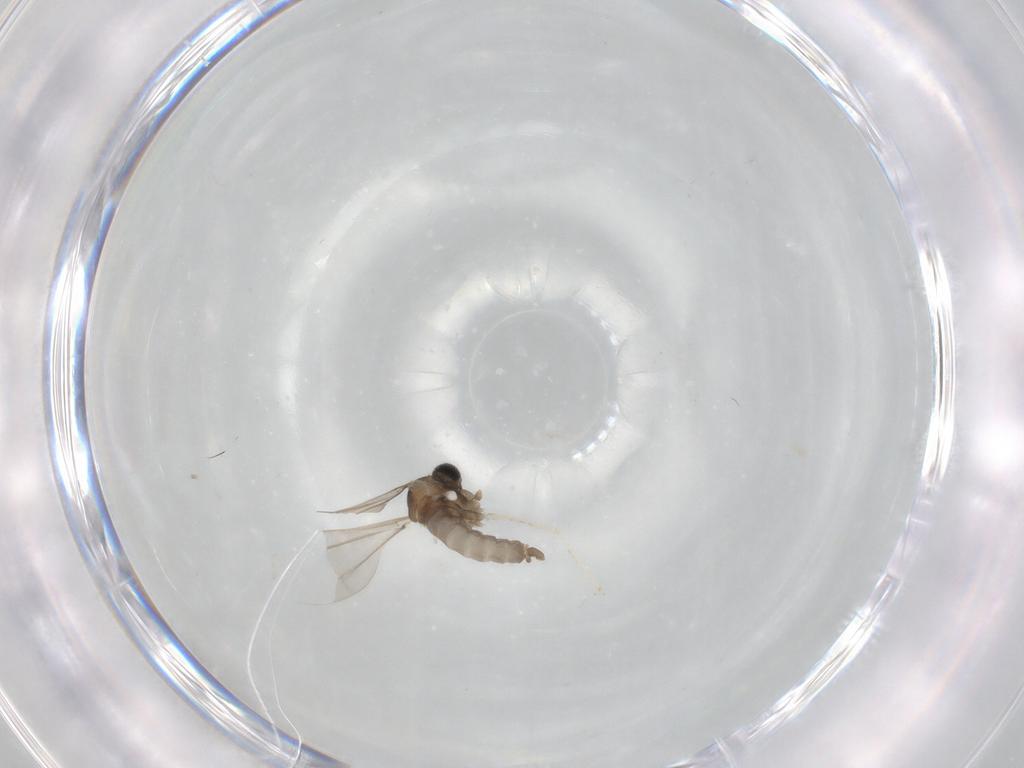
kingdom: Animalia
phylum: Arthropoda
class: Insecta
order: Diptera
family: Cecidomyiidae
